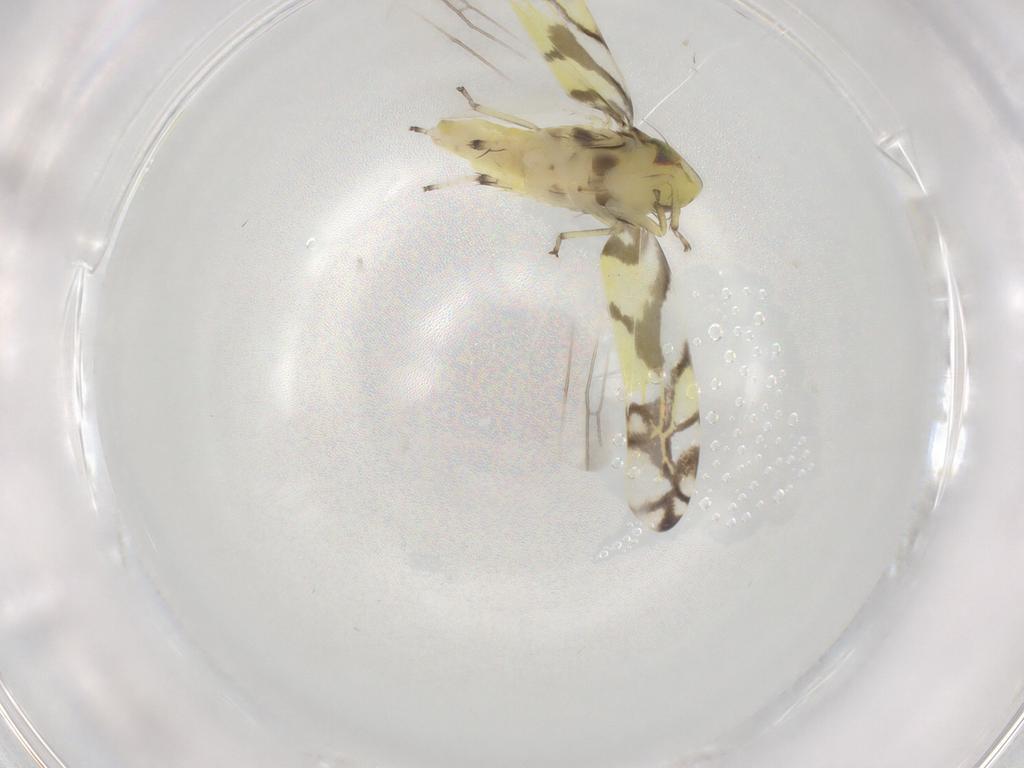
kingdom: Animalia
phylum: Arthropoda
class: Insecta
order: Hemiptera
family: Cicadellidae
